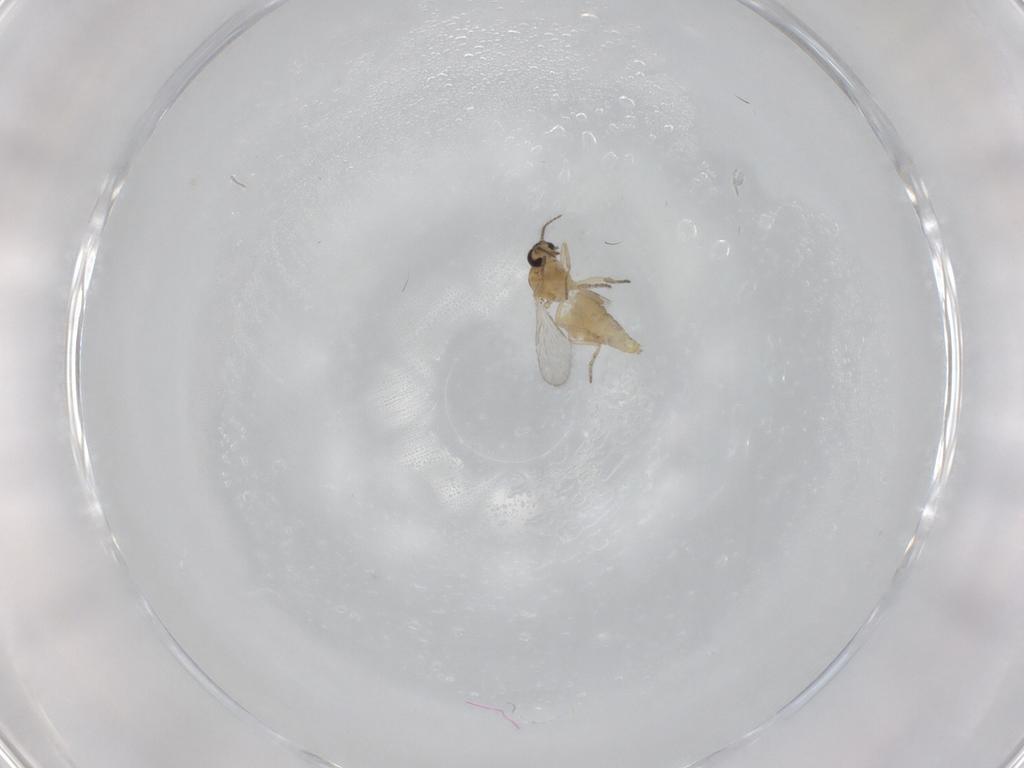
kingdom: Animalia
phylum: Arthropoda
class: Insecta
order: Diptera
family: Ceratopogonidae
